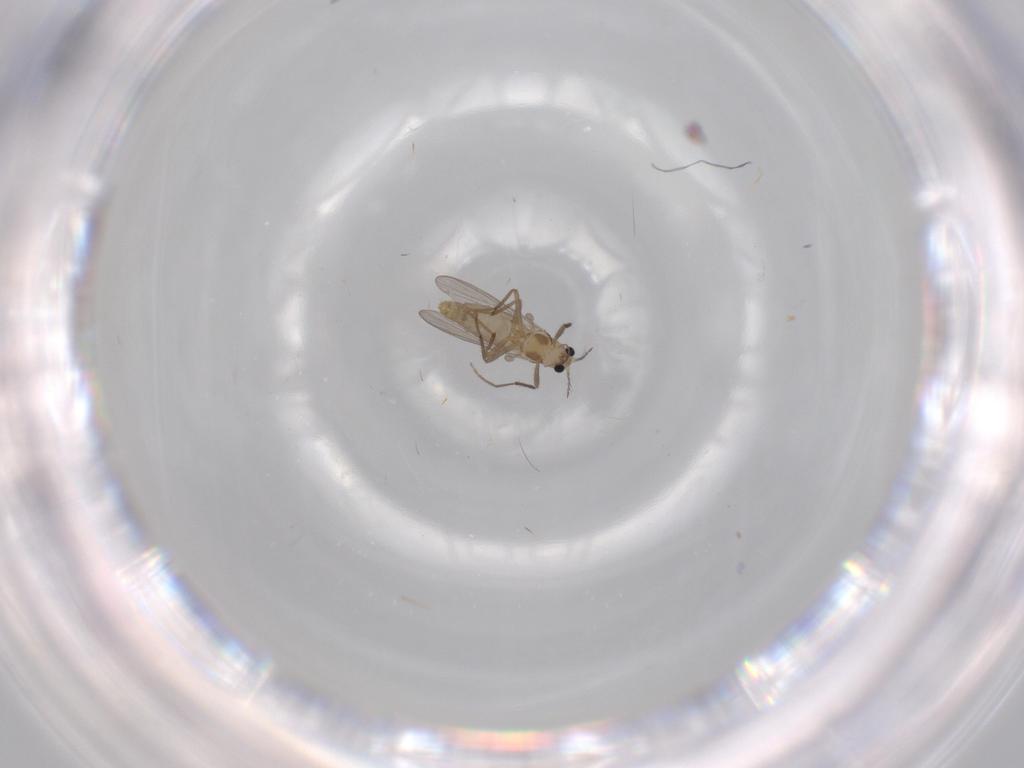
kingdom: Animalia
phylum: Arthropoda
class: Insecta
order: Diptera
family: Chironomidae
